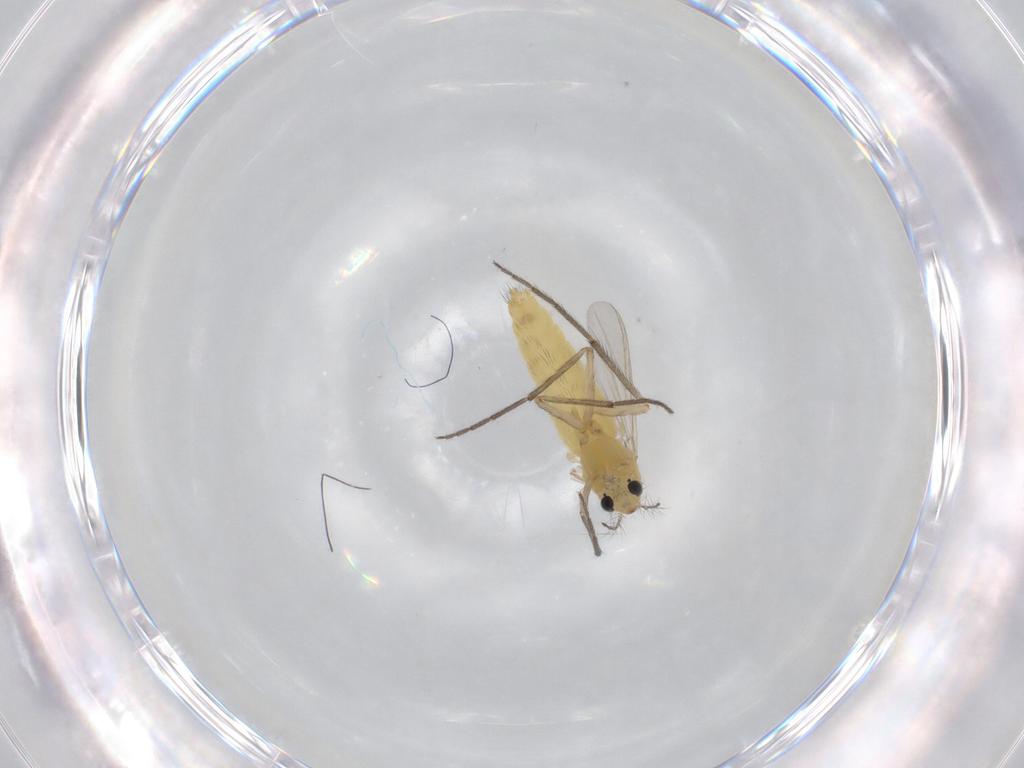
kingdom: Animalia
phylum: Arthropoda
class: Insecta
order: Diptera
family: Chironomidae
